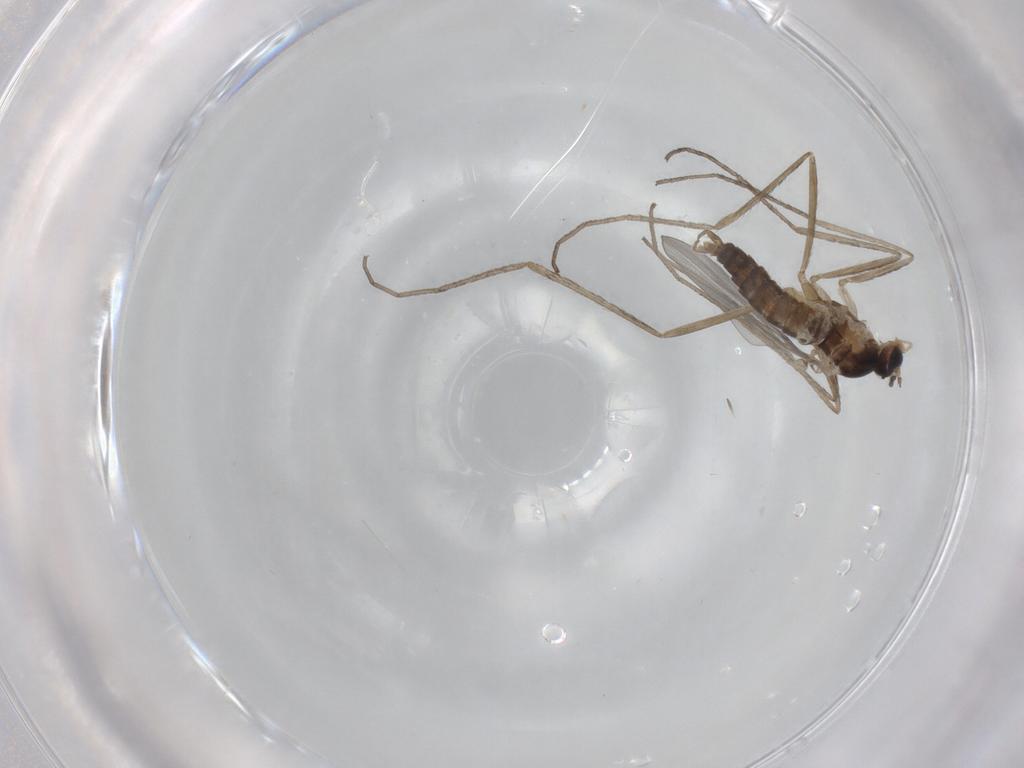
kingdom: Animalia
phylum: Arthropoda
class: Insecta
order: Diptera
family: Cecidomyiidae
